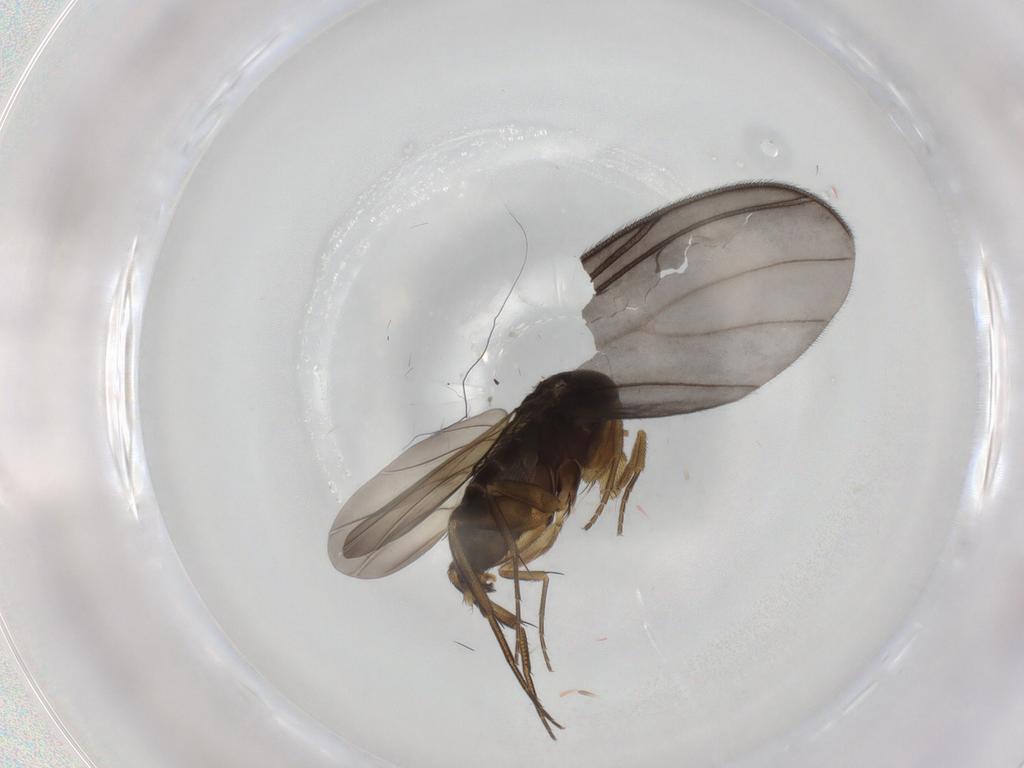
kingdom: Animalia
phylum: Arthropoda
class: Insecta
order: Diptera
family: Phoridae
